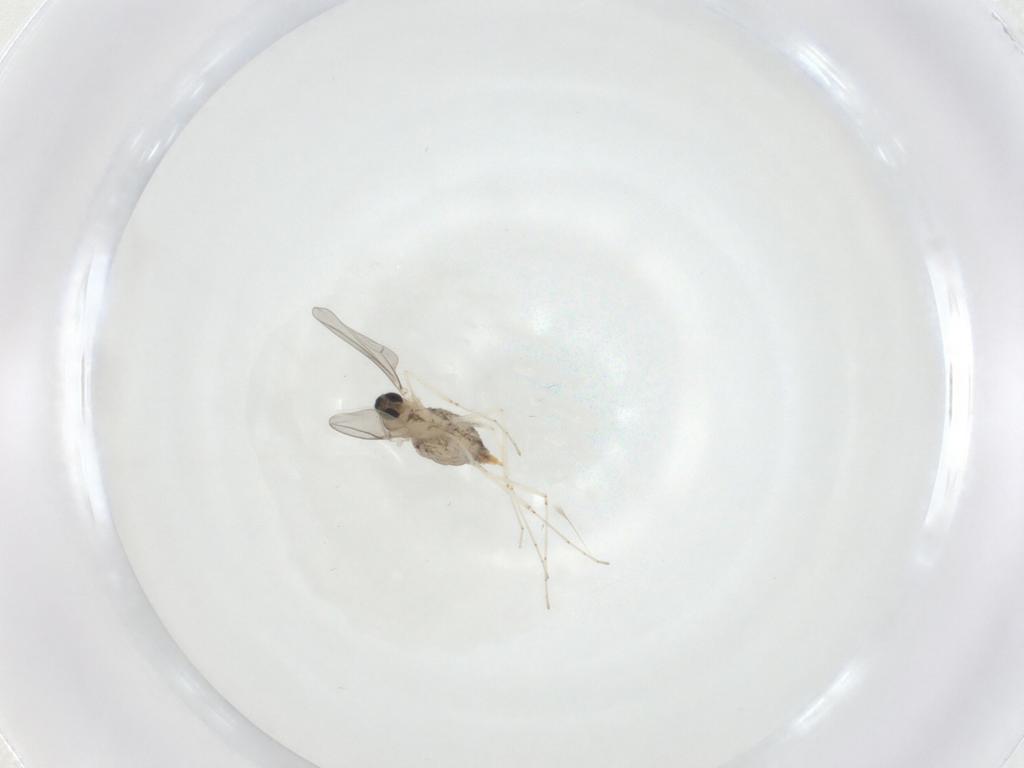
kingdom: Animalia
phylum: Arthropoda
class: Insecta
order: Diptera
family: Cecidomyiidae
